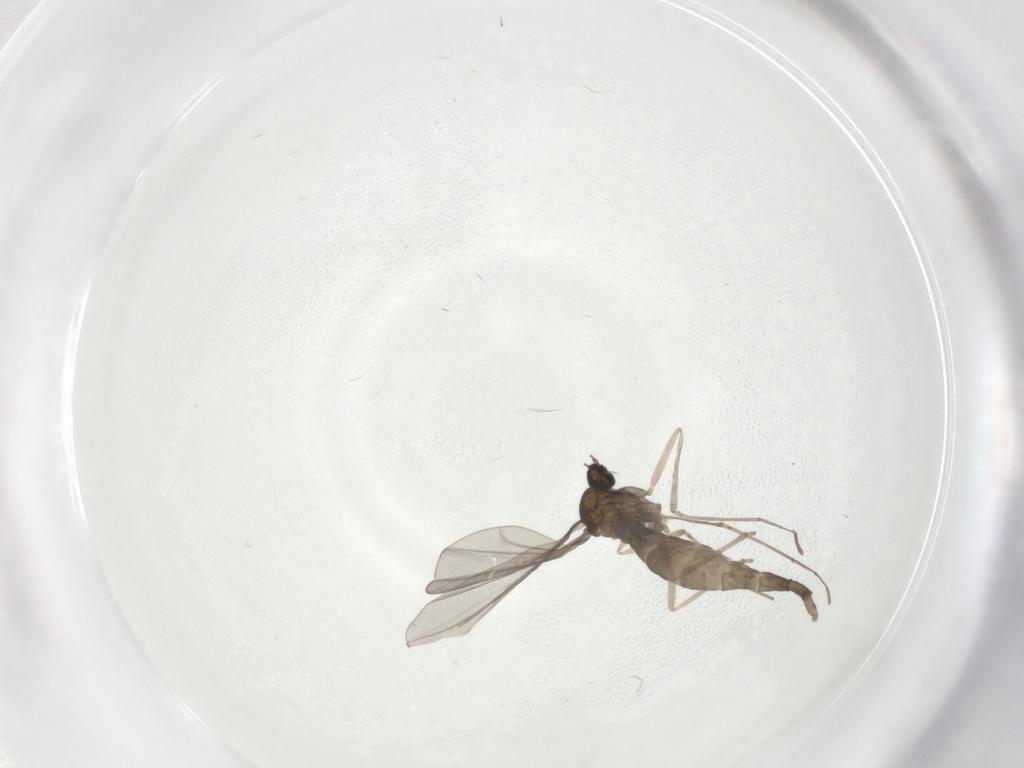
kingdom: Animalia
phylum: Arthropoda
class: Insecta
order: Diptera
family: Cecidomyiidae
